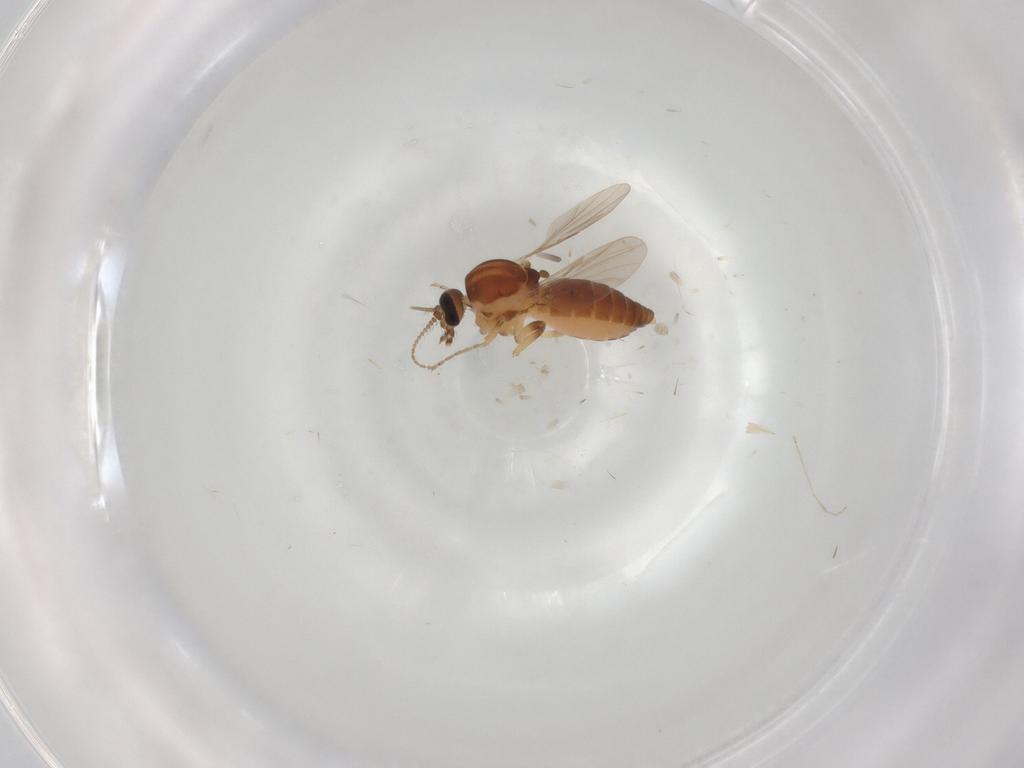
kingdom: Animalia
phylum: Arthropoda
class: Insecta
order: Diptera
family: Cecidomyiidae
